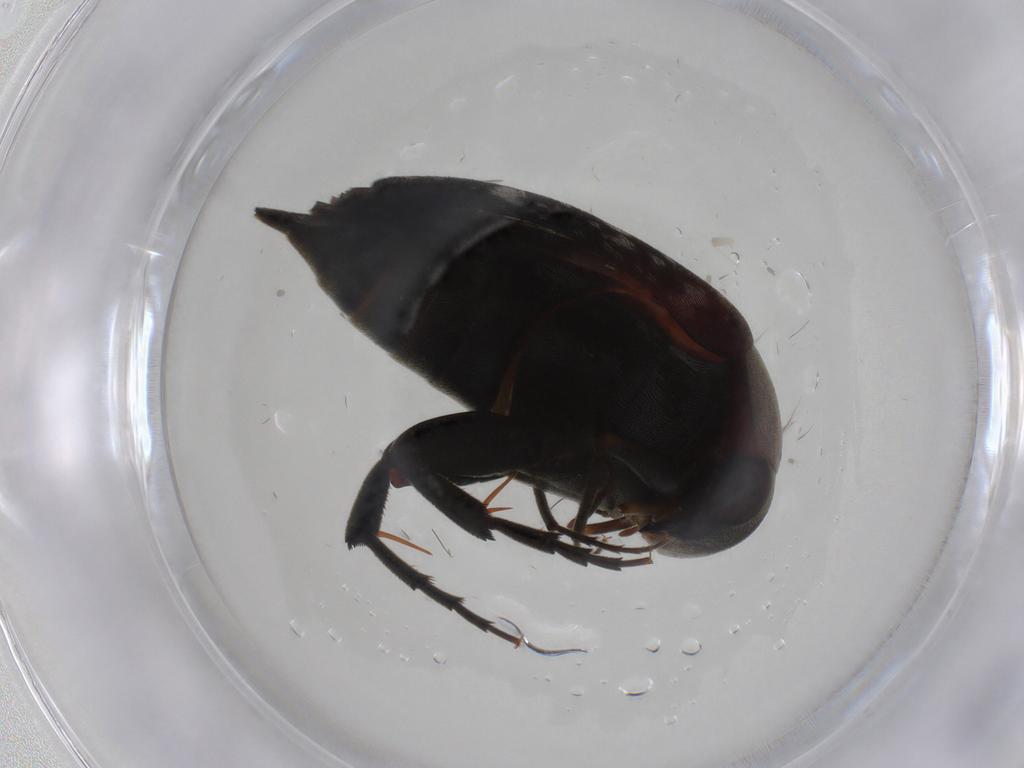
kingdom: Animalia
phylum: Arthropoda
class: Insecta
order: Coleoptera
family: Mordellidae
